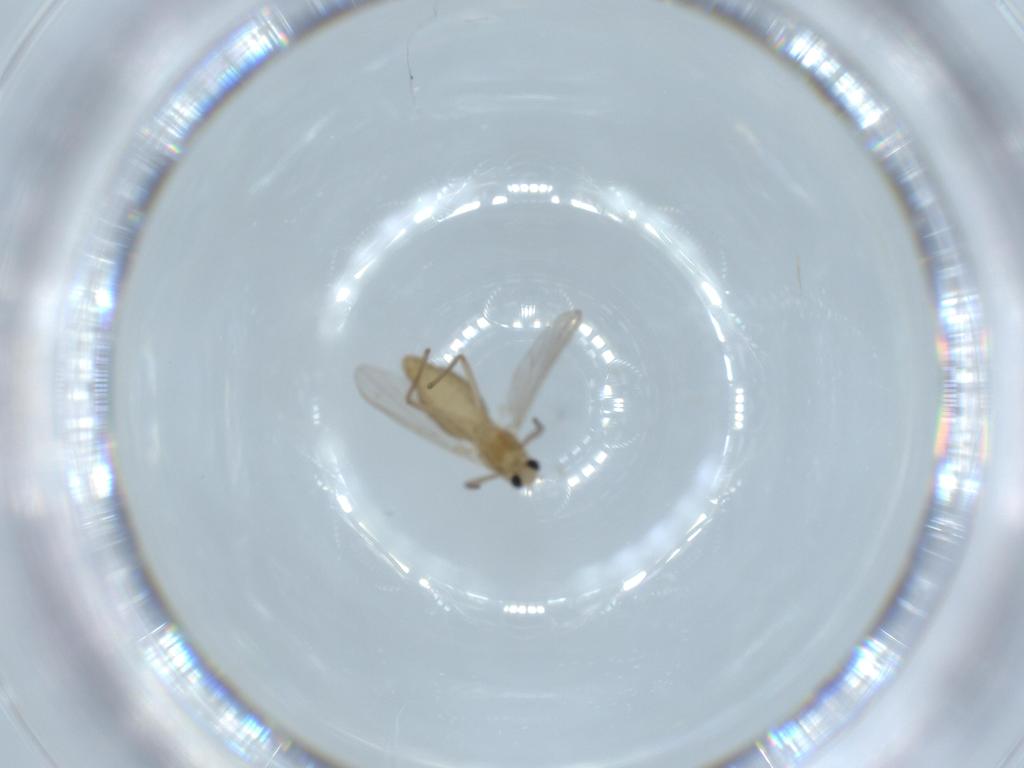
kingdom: Animalia
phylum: Arthropoda
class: Insecta
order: Diptera
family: Chironomidae
